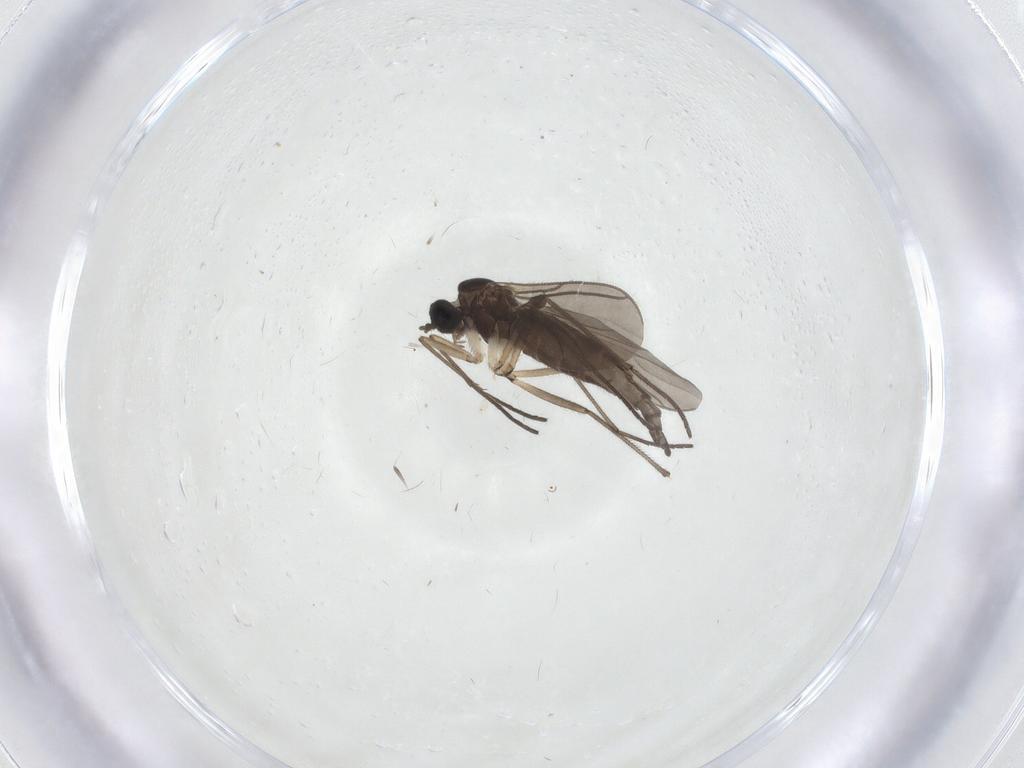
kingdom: Animalia
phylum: Arthropoda
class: Insecta
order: Diptera
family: Sciaridae
